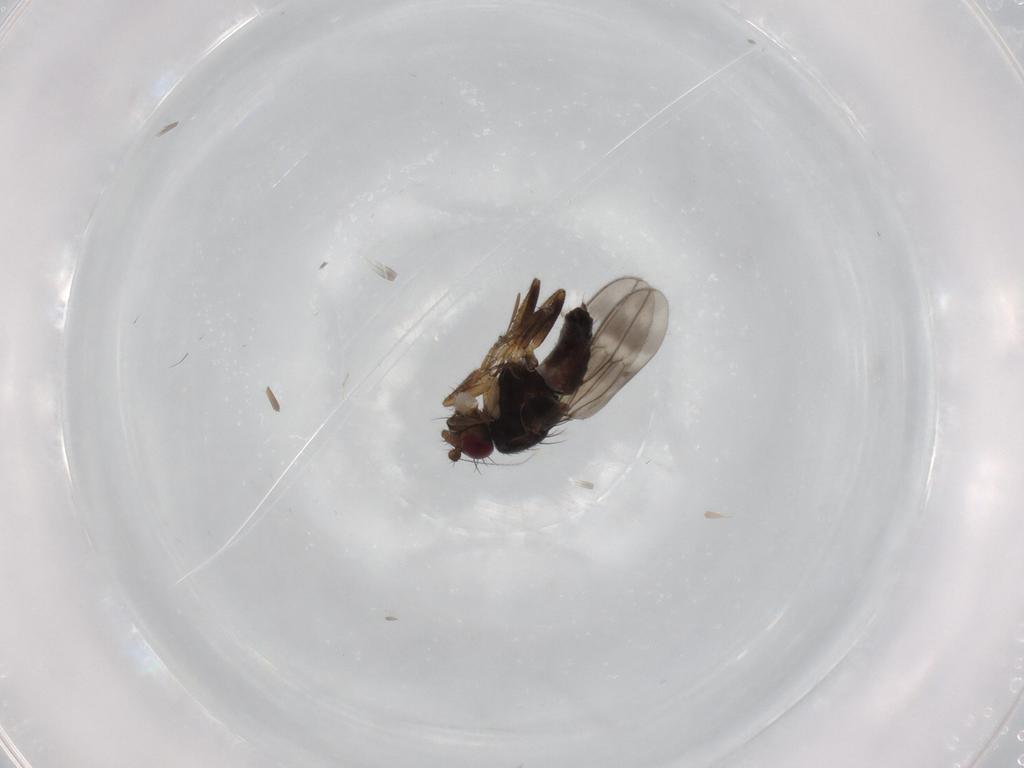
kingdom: Animalia
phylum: Arthropoda
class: Insecta
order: Diptera
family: Sphaeroceridae
